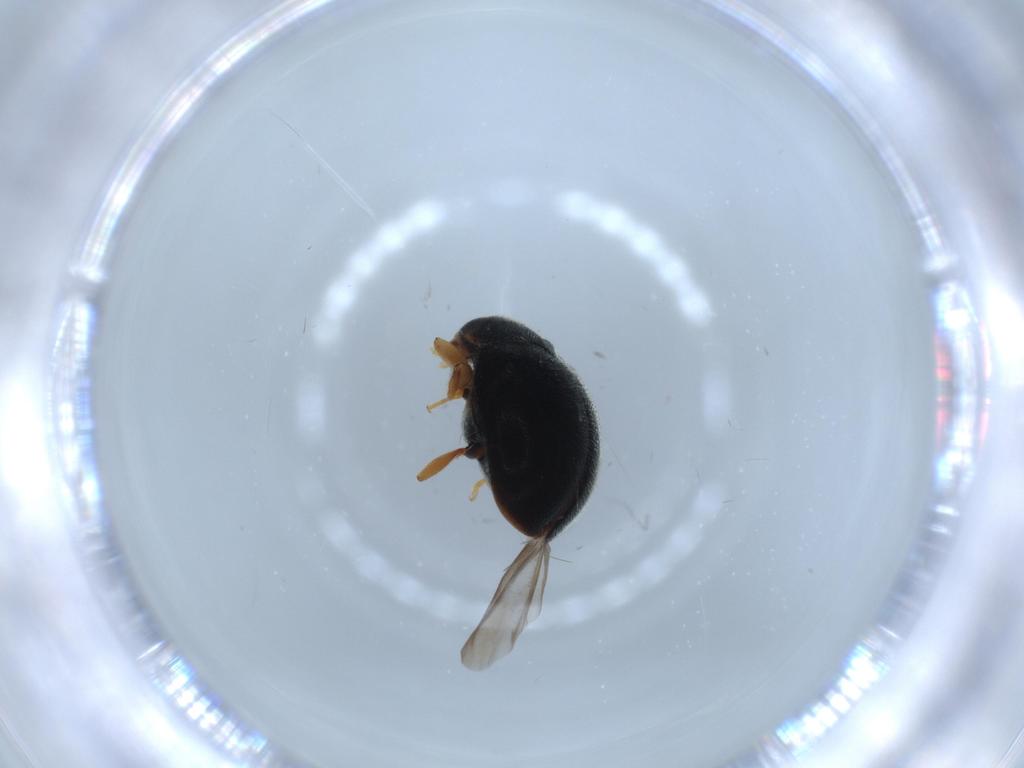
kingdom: Animalia
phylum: Arthropoda
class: Insecta
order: Coleoptera
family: Coccinellidae
